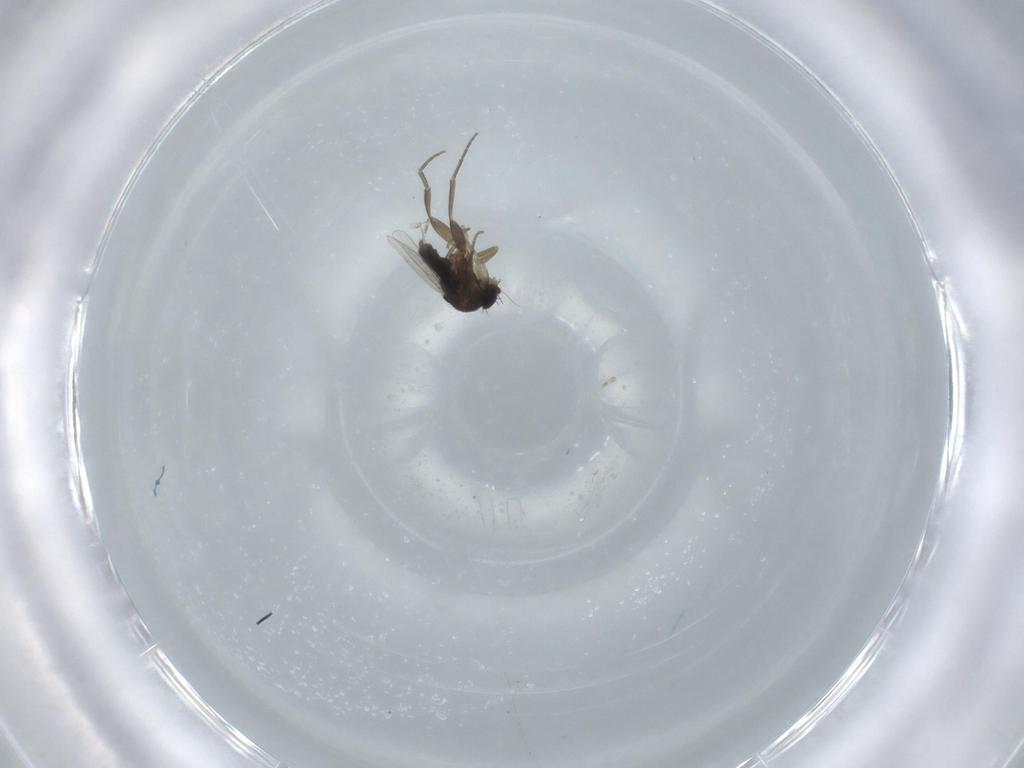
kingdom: Animalia
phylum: Arthropoda
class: Insecta
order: Diptera
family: Phoridae
